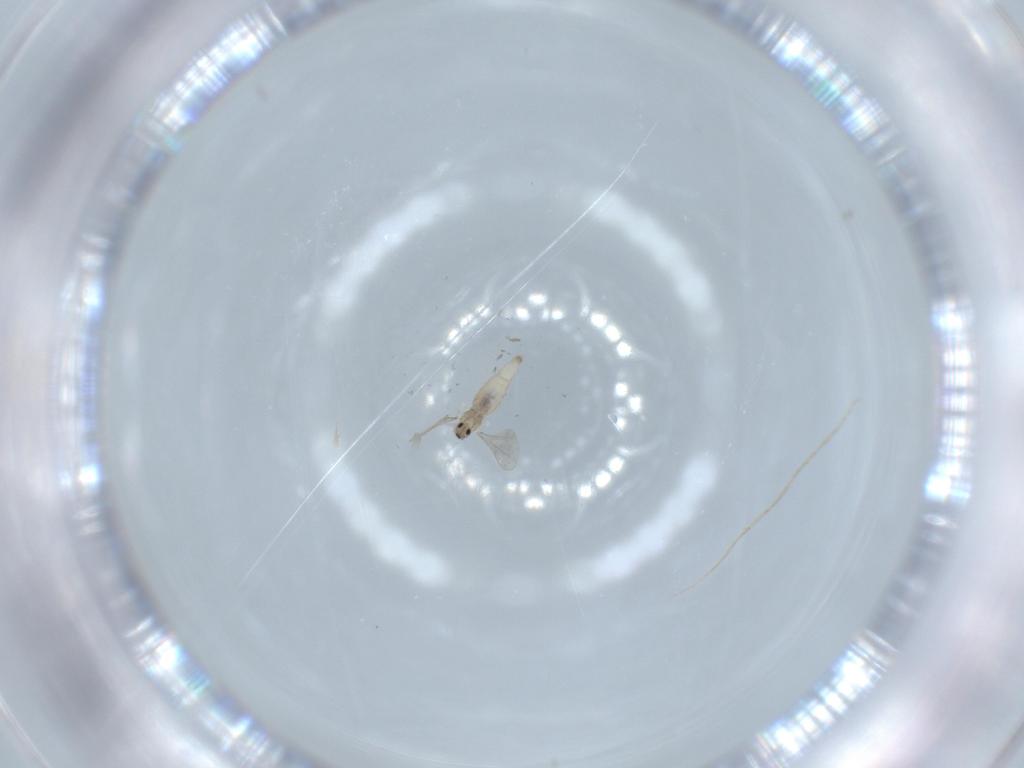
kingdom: Animalia
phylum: Arthropoda
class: Insecta
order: Diptera
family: Cecidomyiidae
